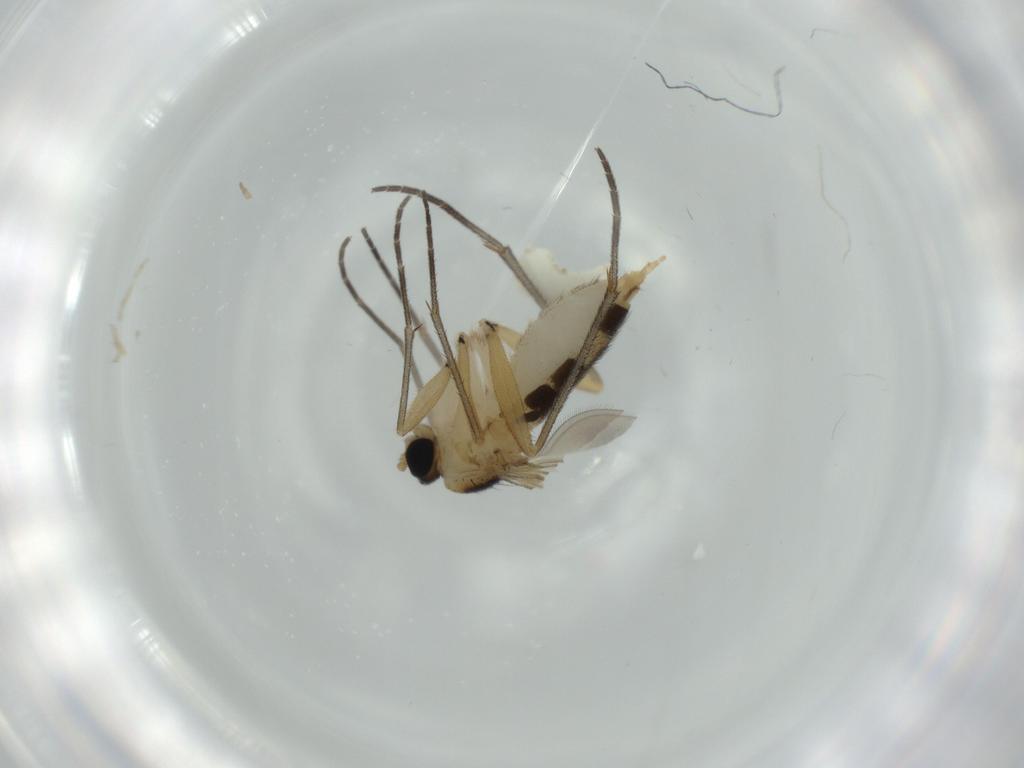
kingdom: Animalia
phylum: Arthropoda
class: Insecta
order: Diptera
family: Sciaridae
